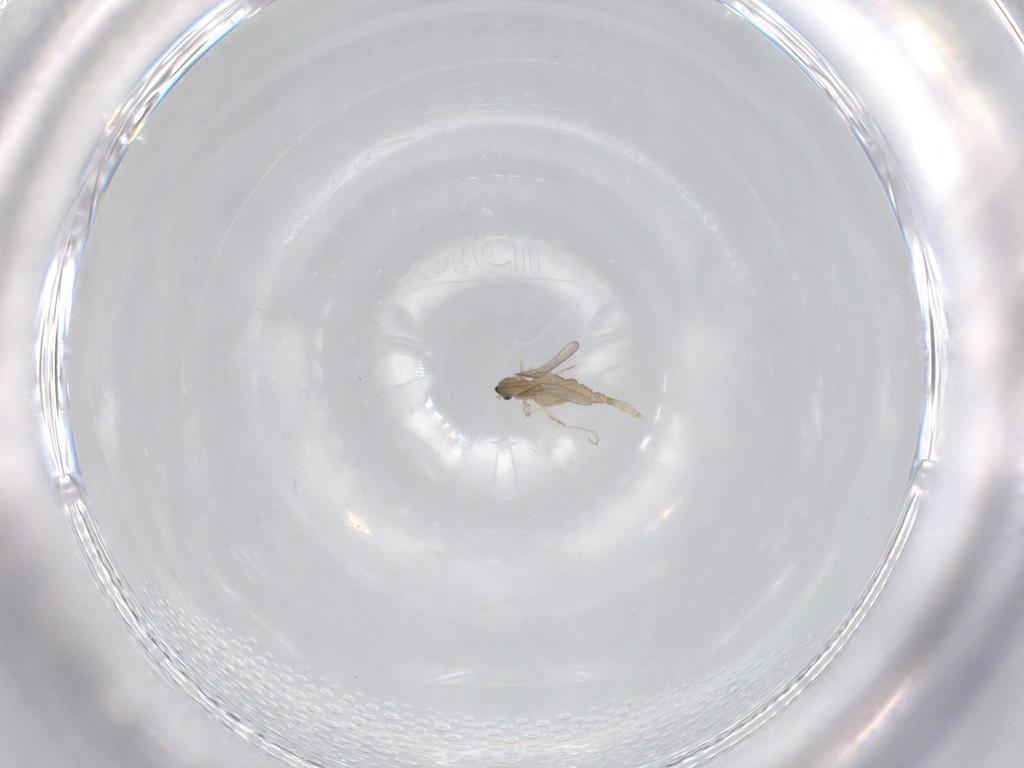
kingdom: Animalia
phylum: Arthropoda
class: Insecta
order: Diptera
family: Cecidomyiidae
